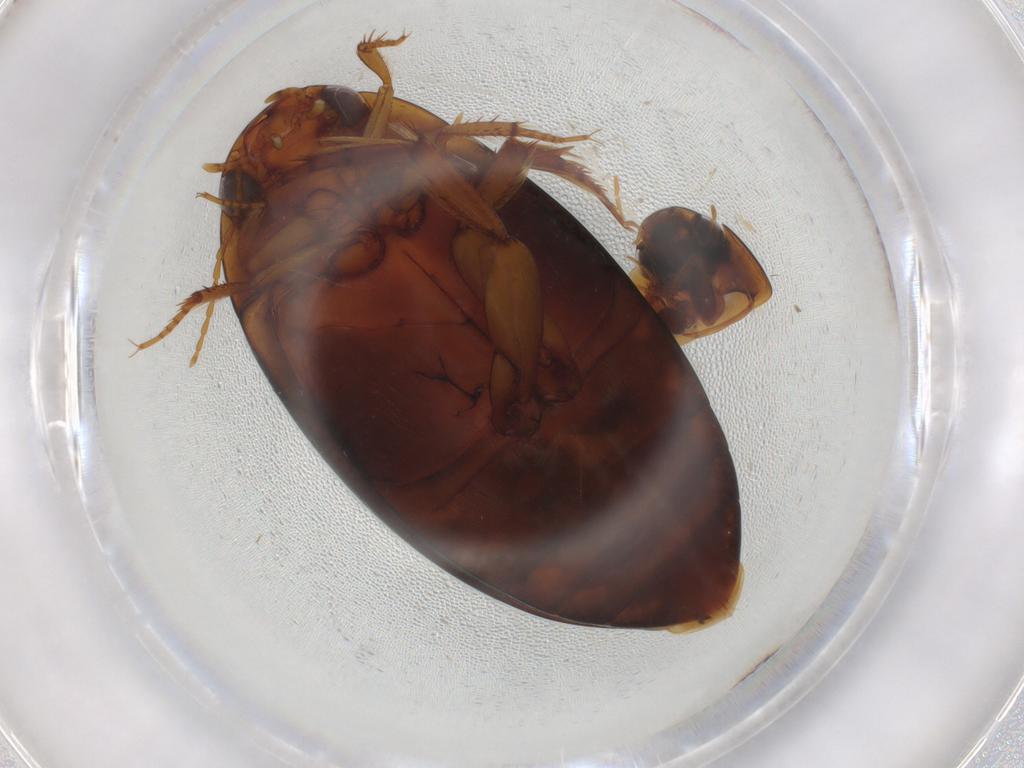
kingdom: Animalia
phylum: Arthropoda
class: Insecta
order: Coleoptera
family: Hydrophilidae
